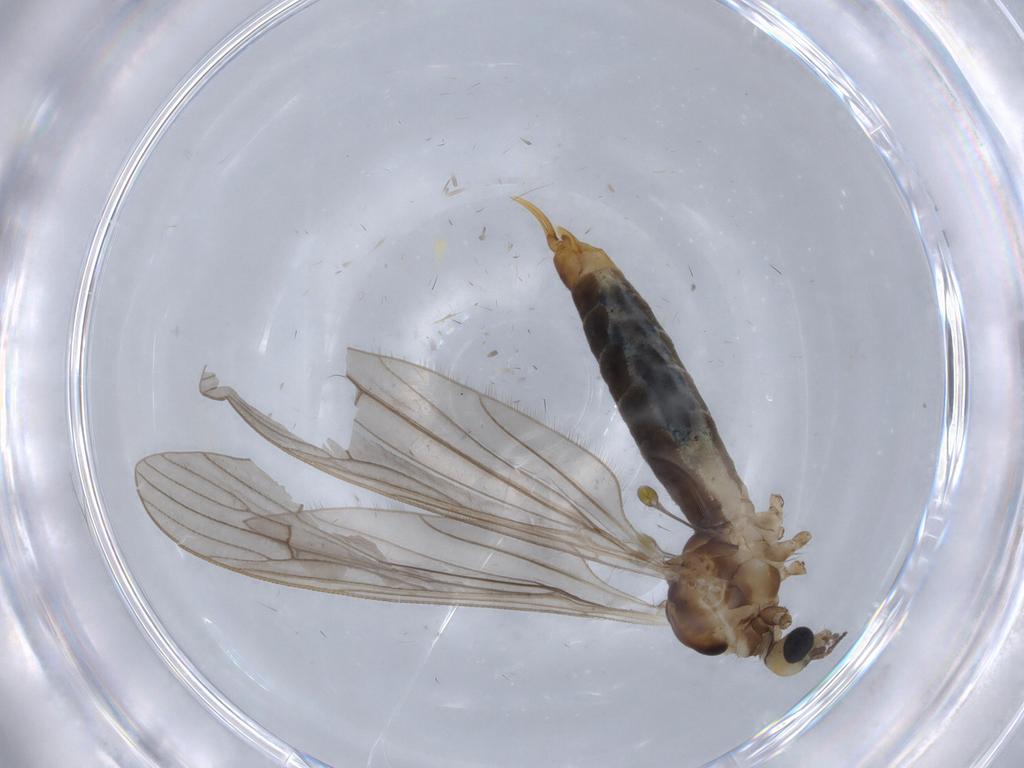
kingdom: Animalia
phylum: Arthropoda
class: Insecta
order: Diptera
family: Limoniidae
